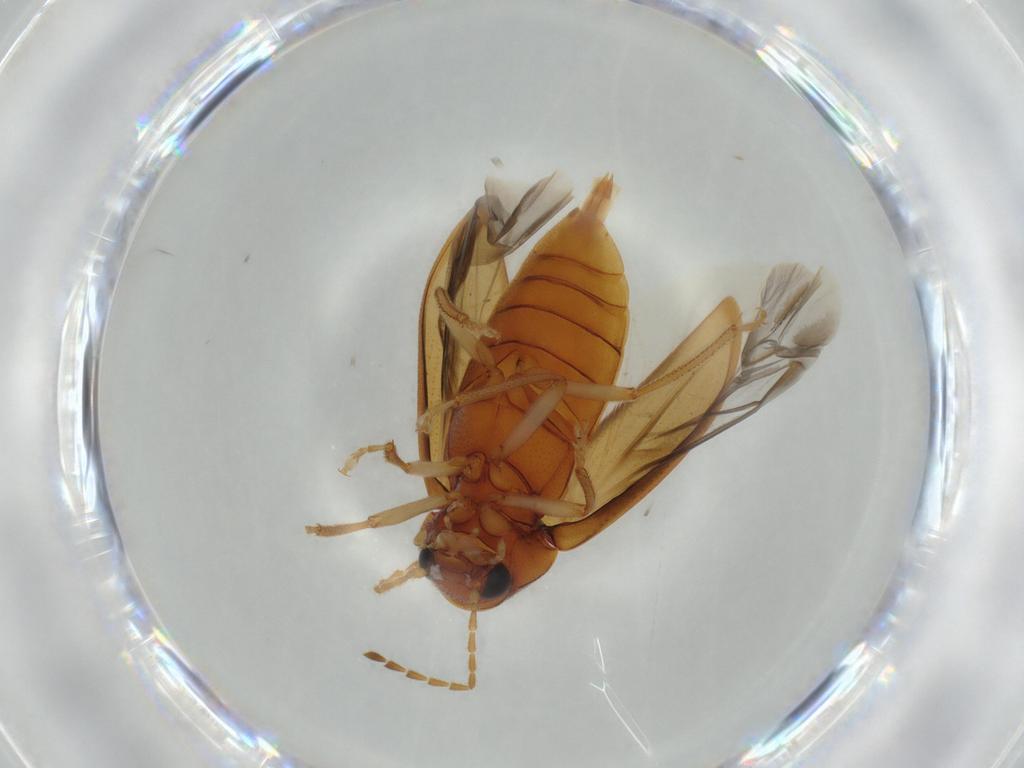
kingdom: Animalia
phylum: Arthropoda
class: Insecta
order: Coleoptera
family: Ptilodactylidae
